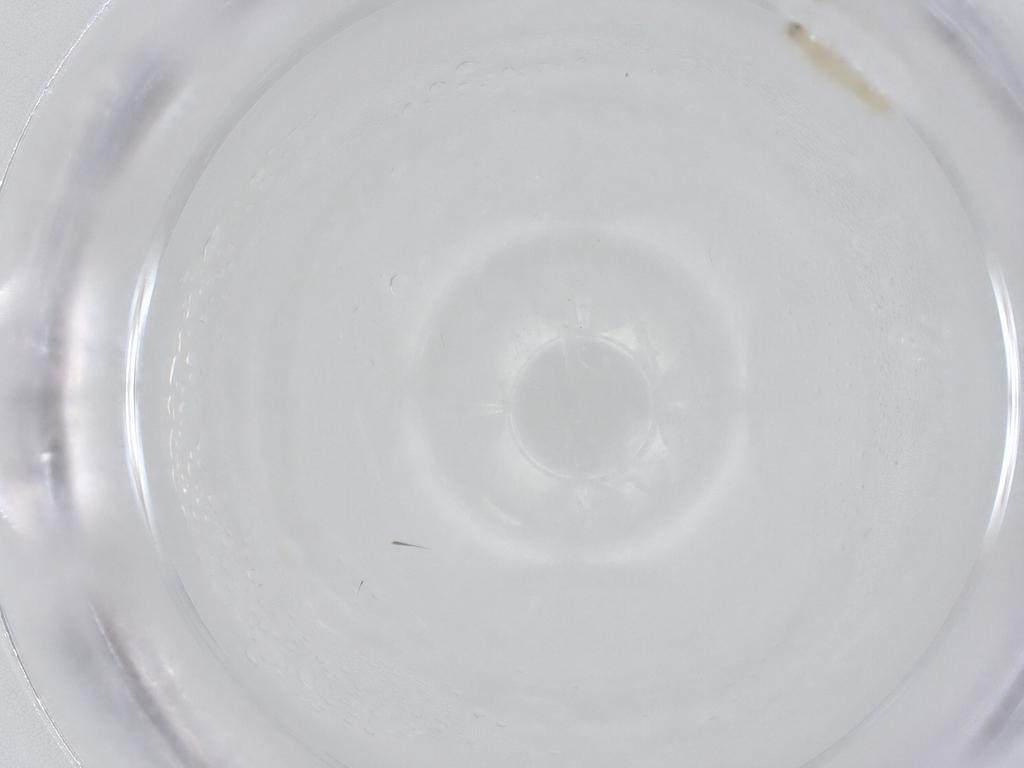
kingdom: Animalia
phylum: Arthropoda
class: Collembola
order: Entomobryomorpha
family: Entomobryidae
